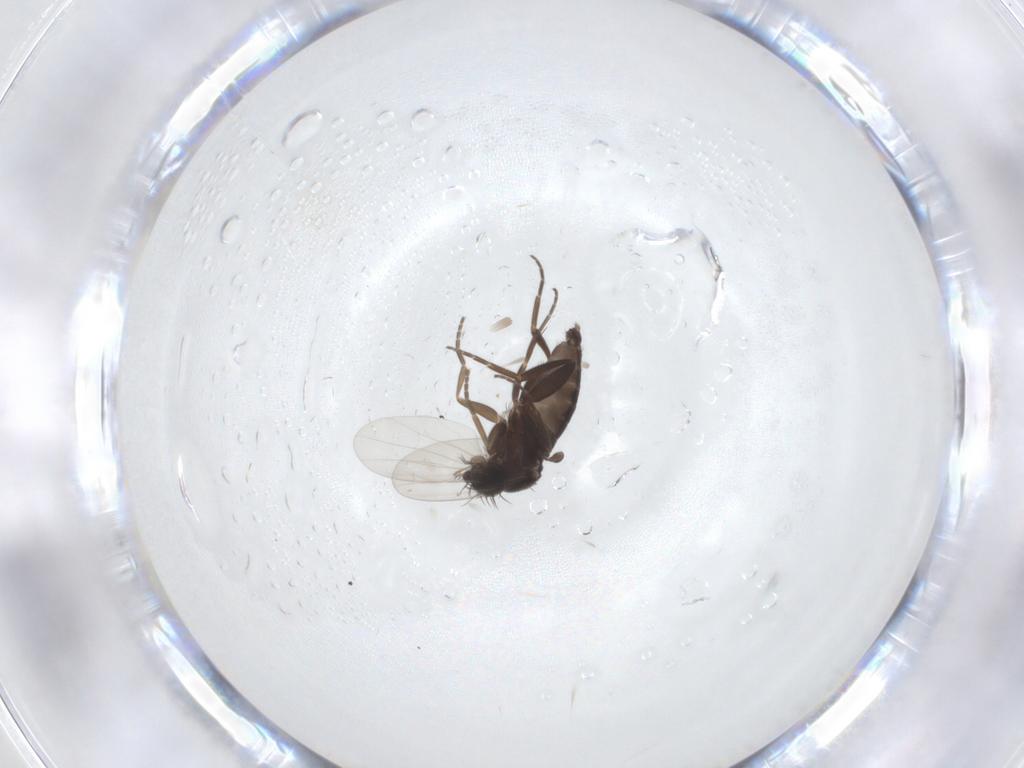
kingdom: Animalia
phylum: Arthropoda
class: Insecta
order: Diptera
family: Phoridae
